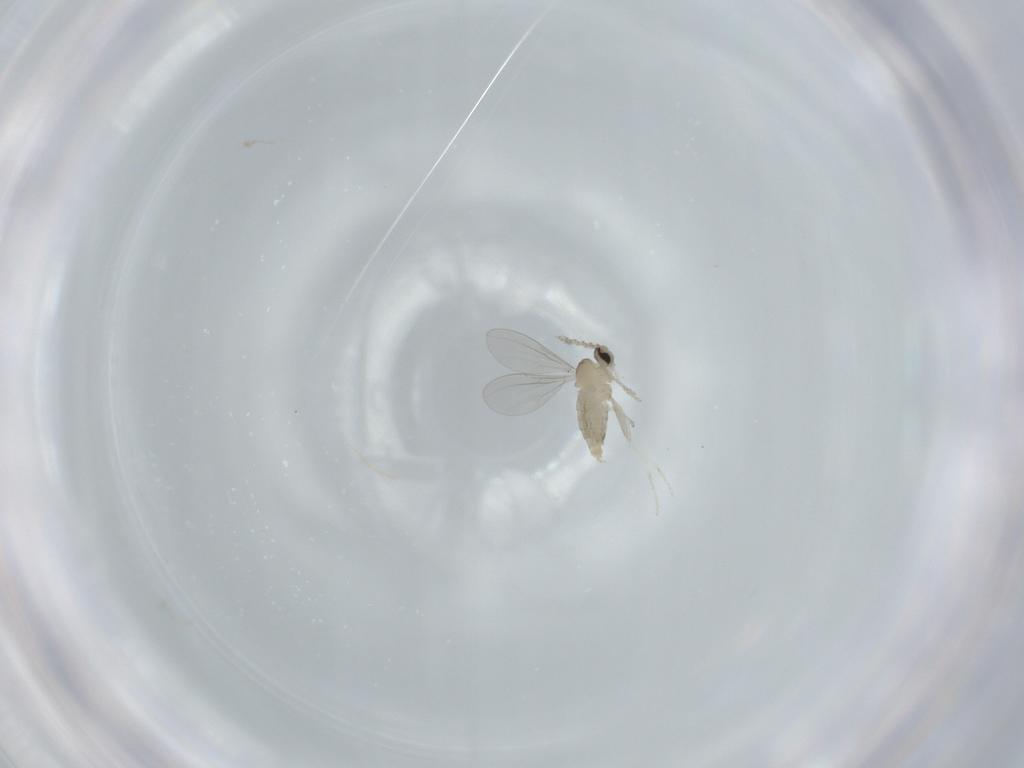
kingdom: Animalia
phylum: Arthropoda
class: Insecta
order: Diptera
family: Cecidomyiidae
